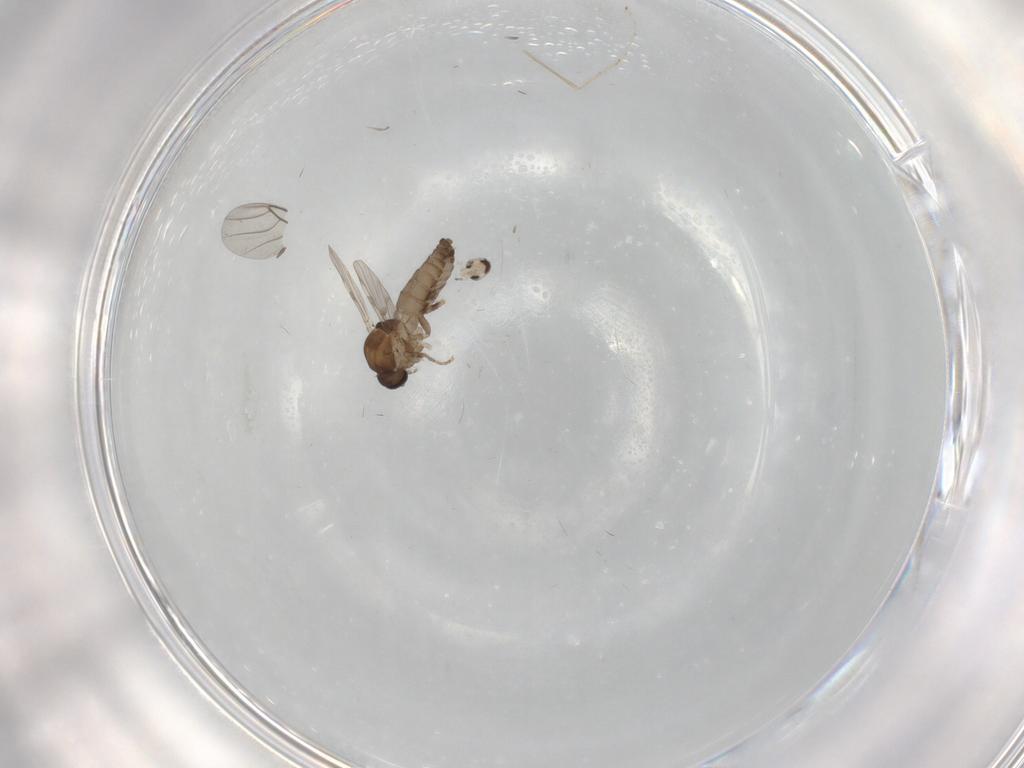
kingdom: Animalia
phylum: Arthropoda
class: Insecta
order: Diptera
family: Ceratopogonidae
